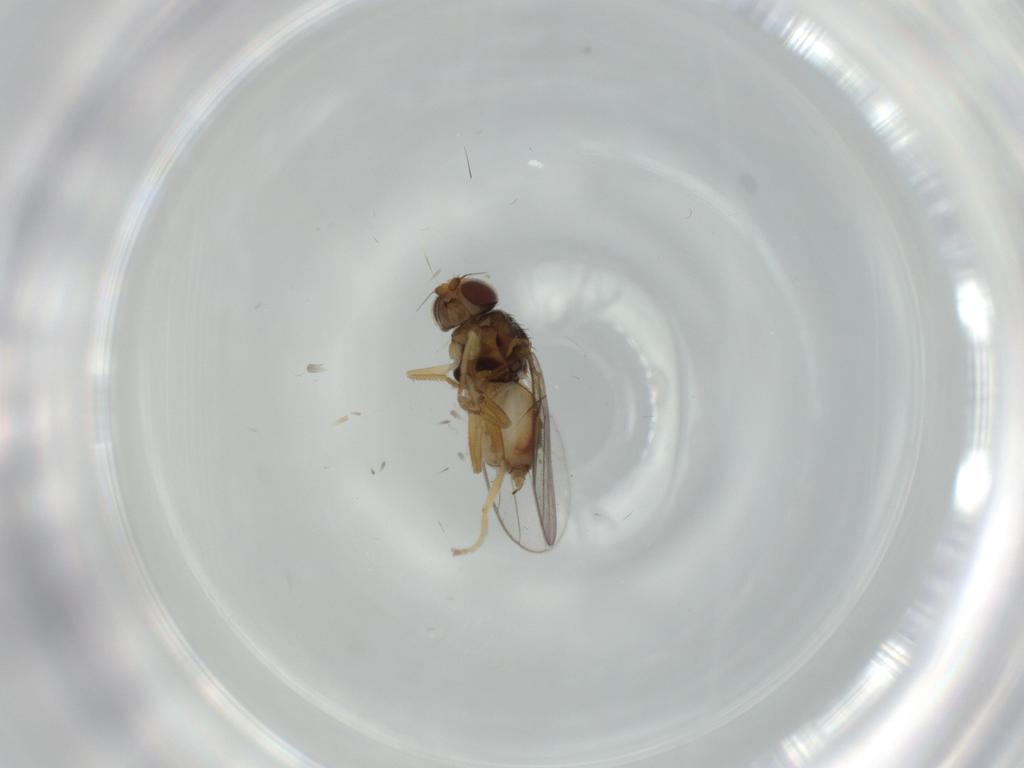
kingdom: Animalia
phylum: Arthropoda
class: Insecta
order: Diptera
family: Chloropidae
